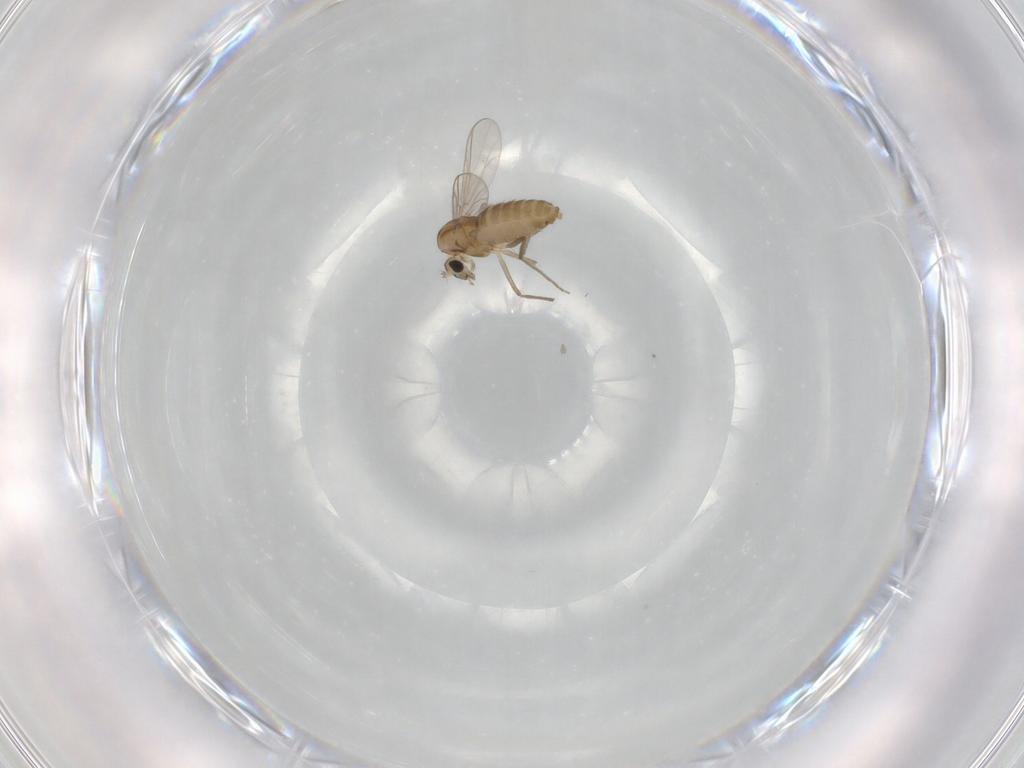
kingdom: Animalia
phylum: Arthropoda
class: Insecta
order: Diptera
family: Chironomidae
